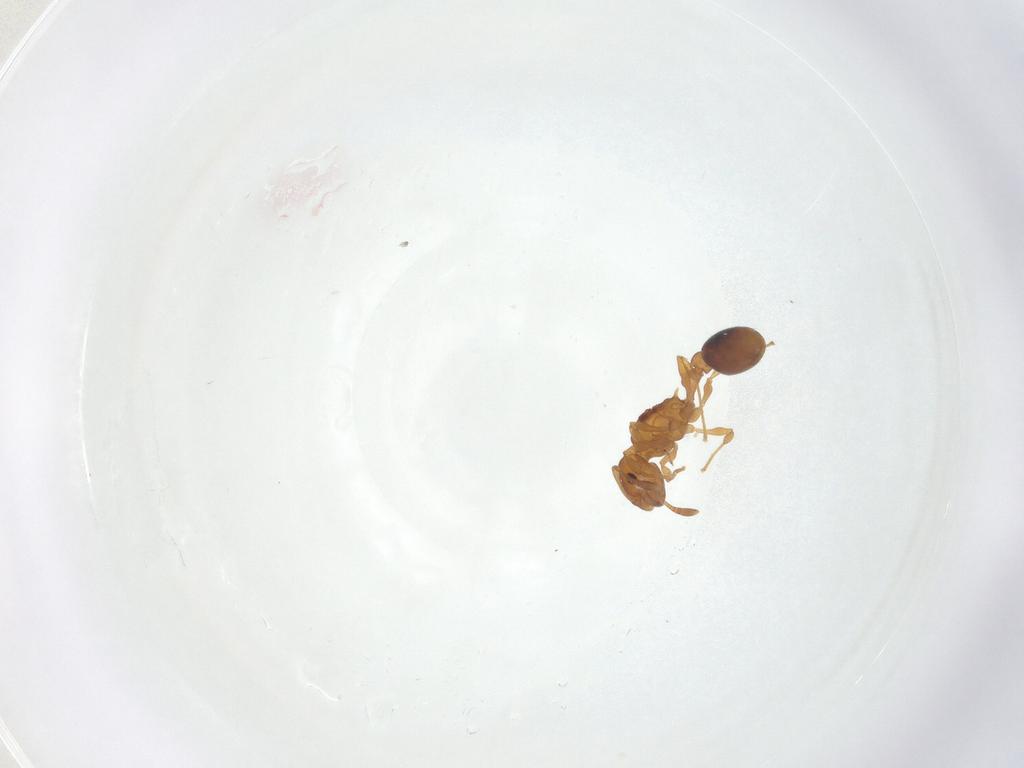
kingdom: Animalia
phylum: Arthropoda
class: Insecta
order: Hymenoptera
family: Formicidae
